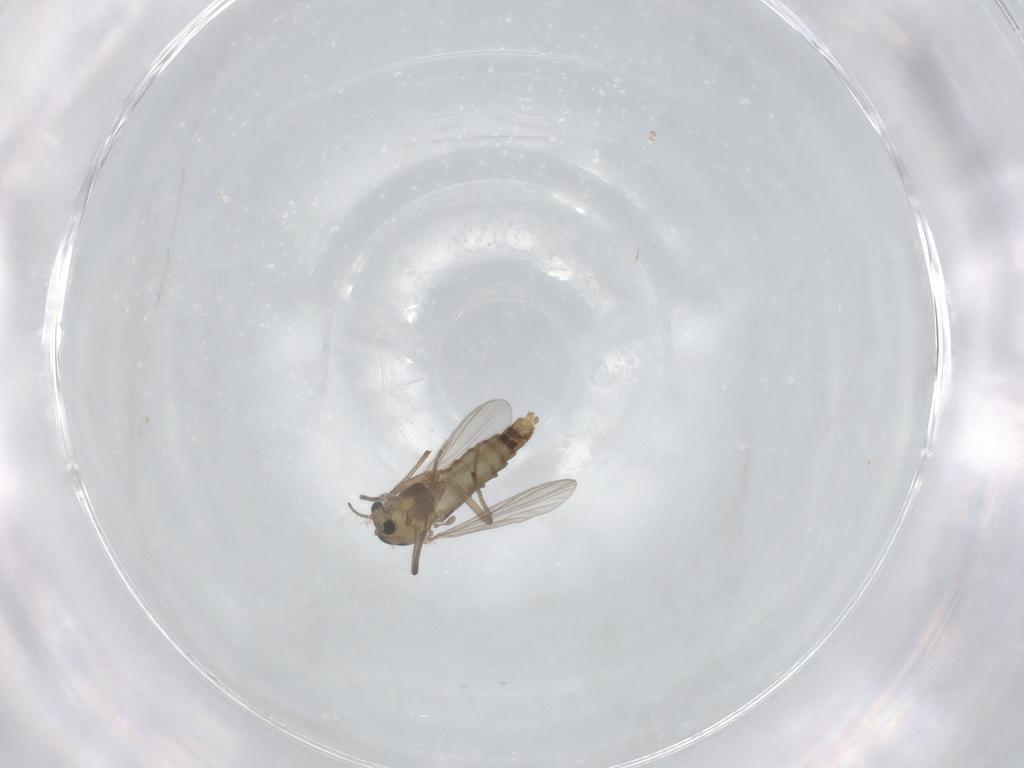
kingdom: Animalia
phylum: Arthropoda
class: Insecta
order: Diptera
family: Chironomidae
